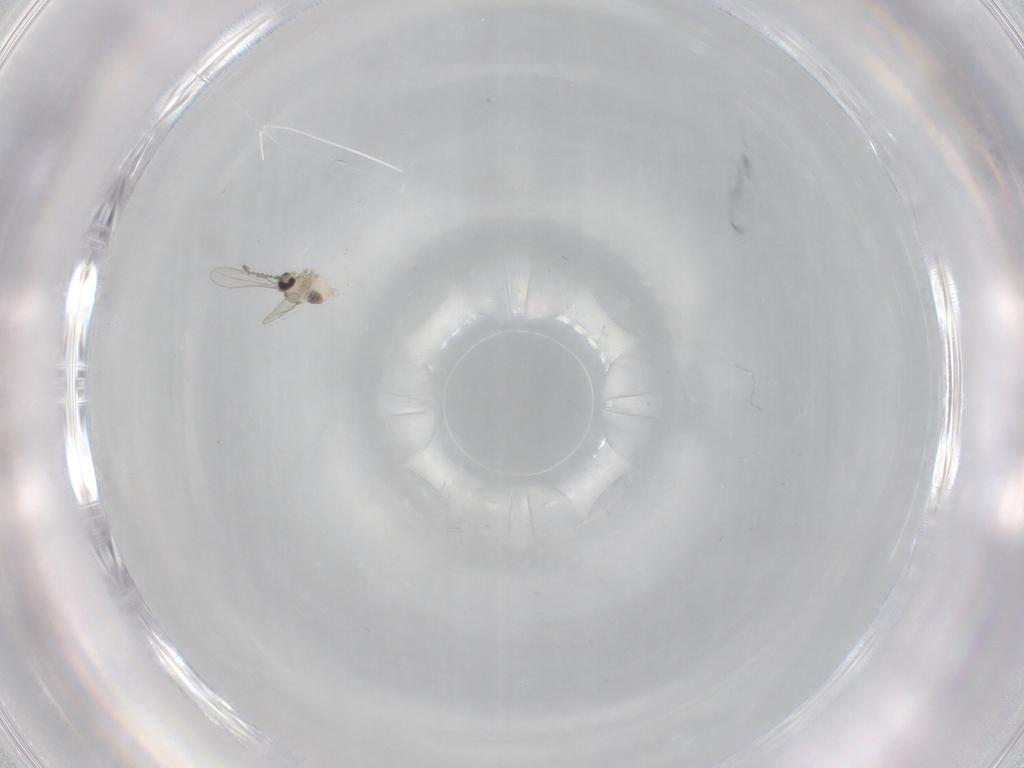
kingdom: Animalia
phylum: Arthropoda
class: Insecta
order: Diptera
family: Cecidomyiidae
